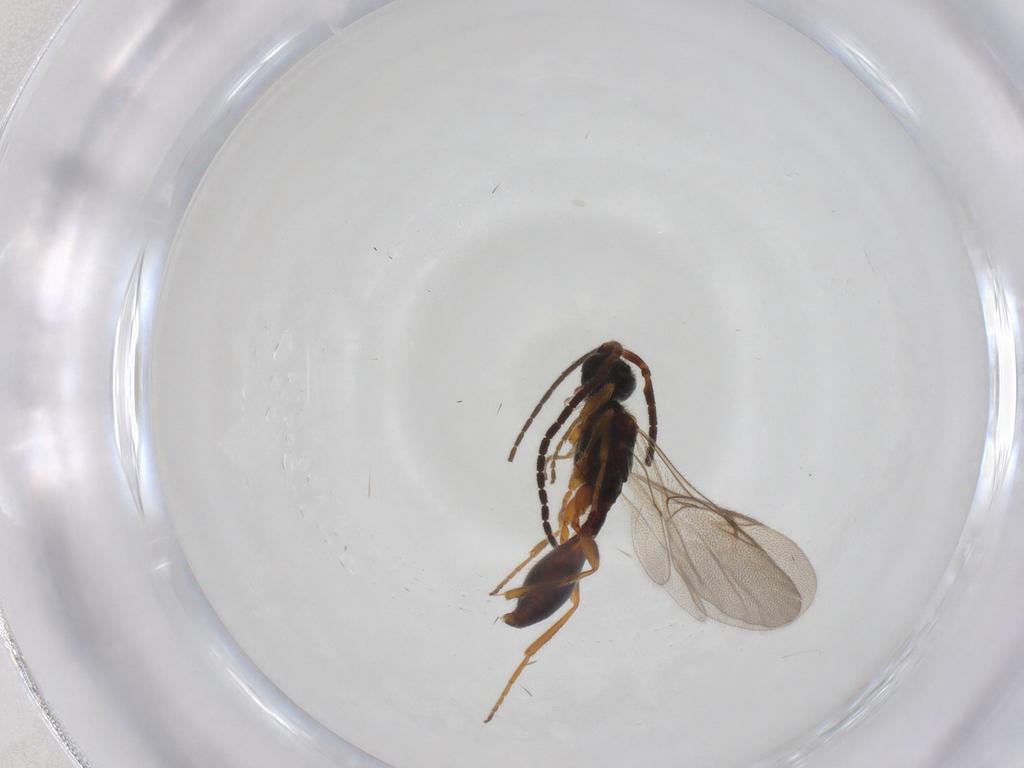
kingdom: Animalia
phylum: Arthropoda
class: Insecta
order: Hymenoptera
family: Braconidae
